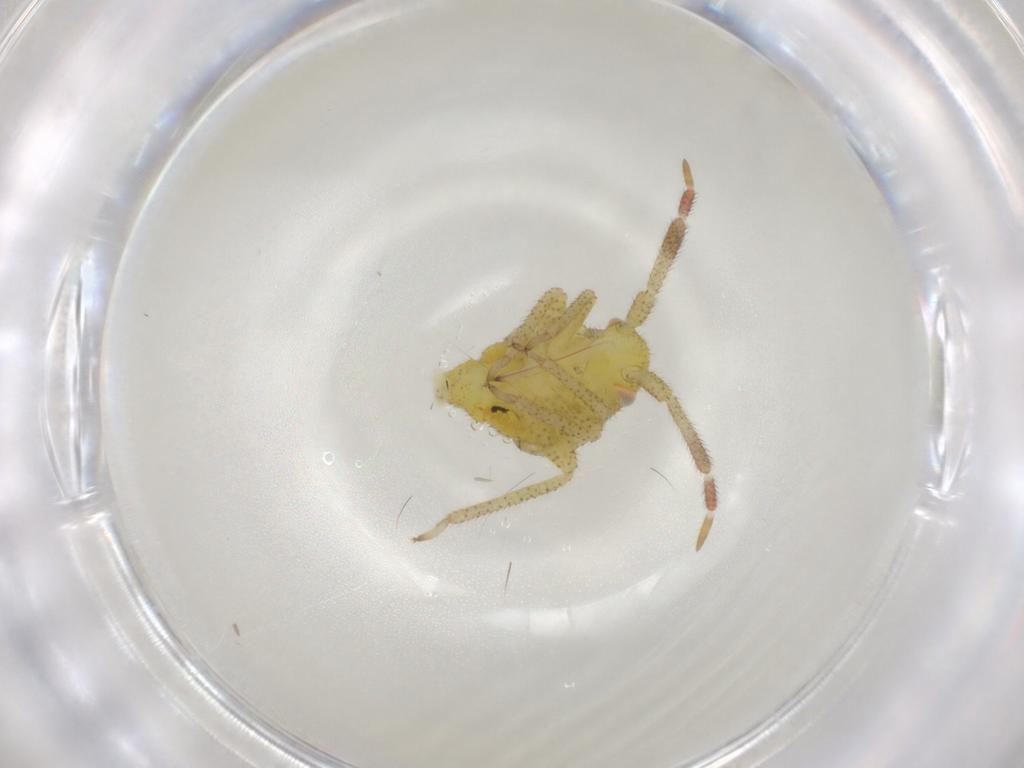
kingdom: Animalia
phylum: Arthropoda
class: Insecta
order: Hemiptera
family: Miridae
